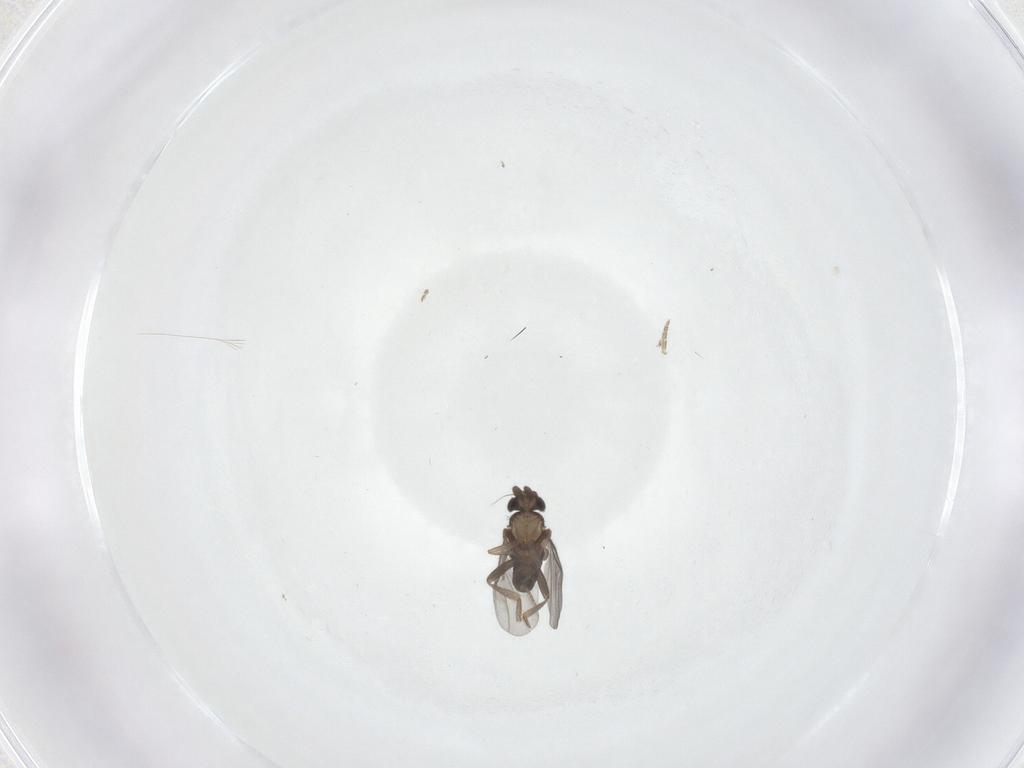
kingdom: Animalia
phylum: Arthropoda
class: Insecta
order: Diptera
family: Phoridae
